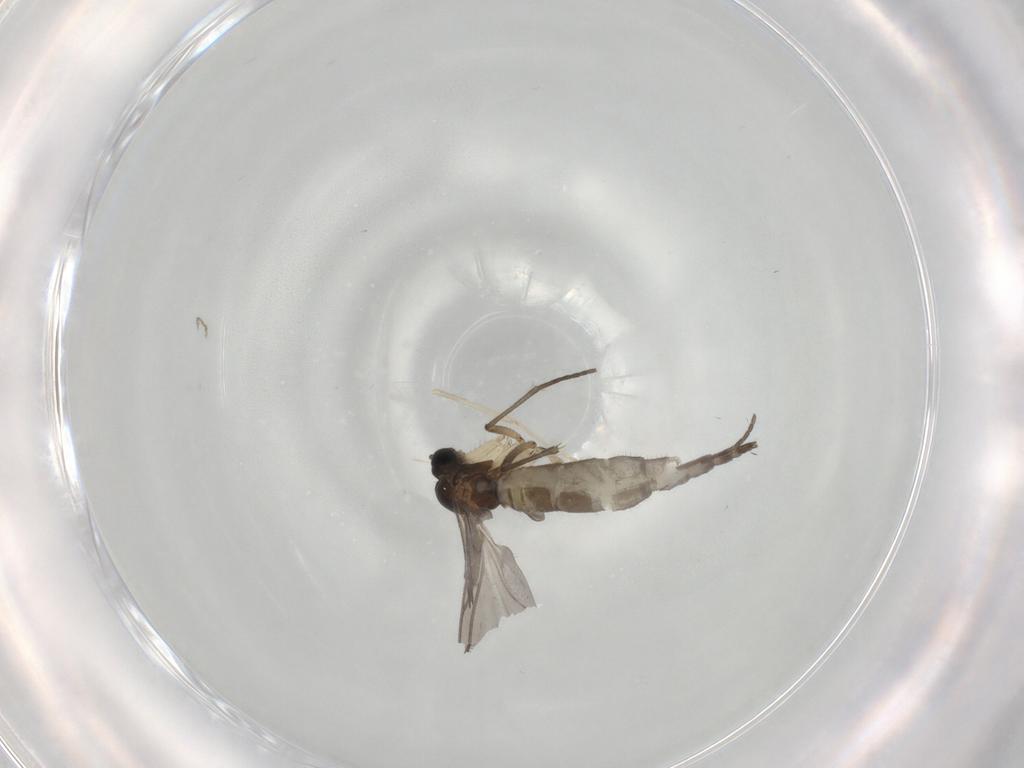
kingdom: Animalia
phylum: Arthropoda
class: Insecta
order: Diptera
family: Sciaridae
